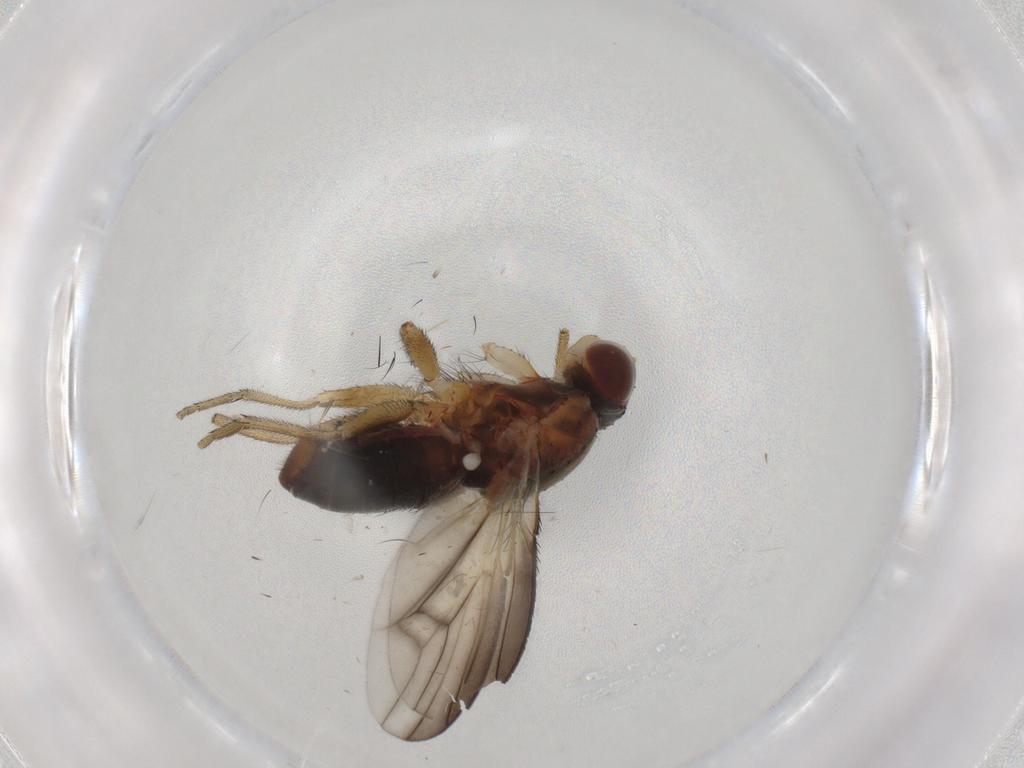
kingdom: Animalia
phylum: Arthropoda
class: Insecta
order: Diptera
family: Heleomyzidae
